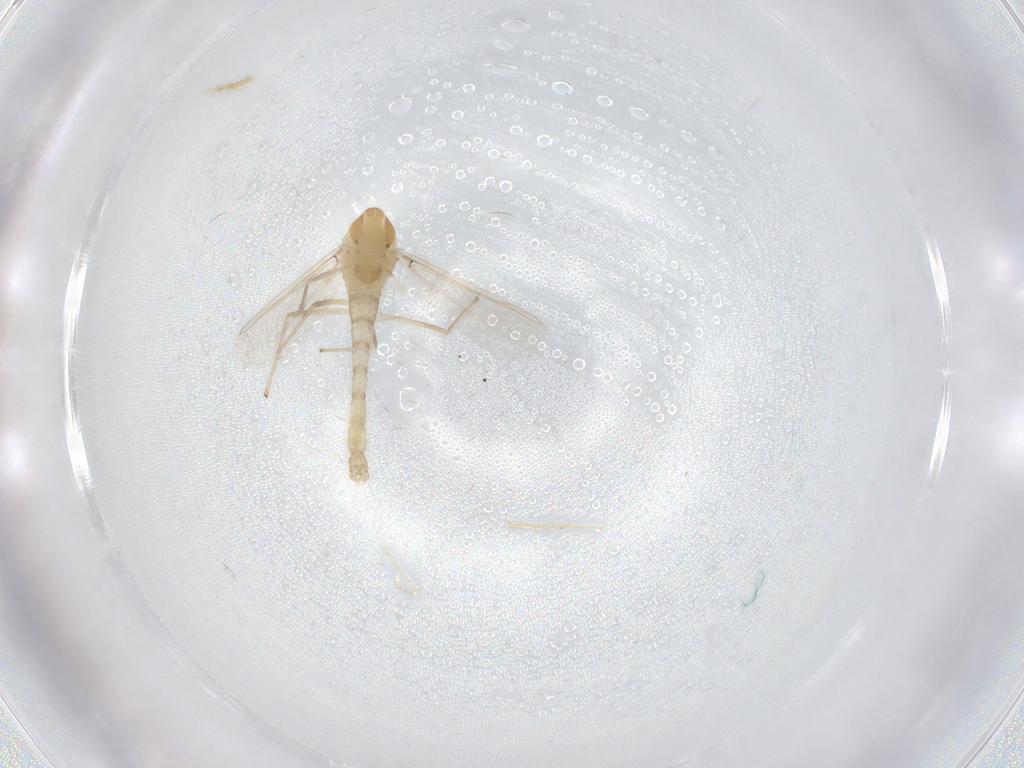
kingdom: Animalia
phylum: Arthropoda
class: Insecta
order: Diptera
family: Chironomidae
